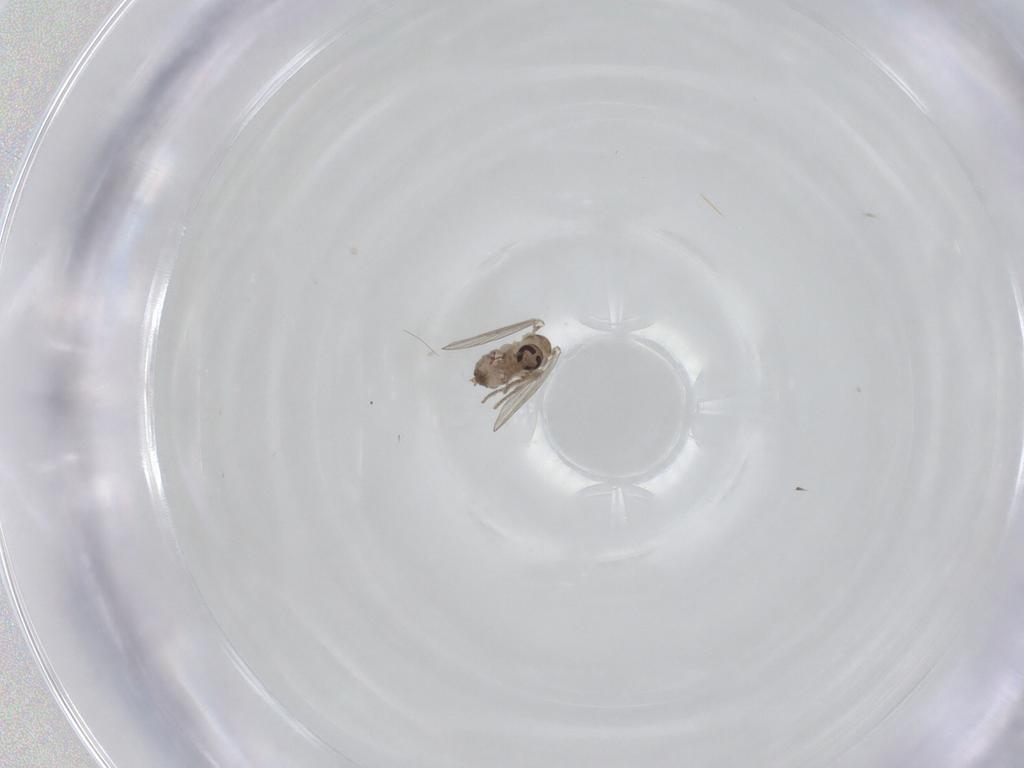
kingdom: Animalia
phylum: Arthropoda
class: Insecta
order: Diptera
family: Psychodidae
